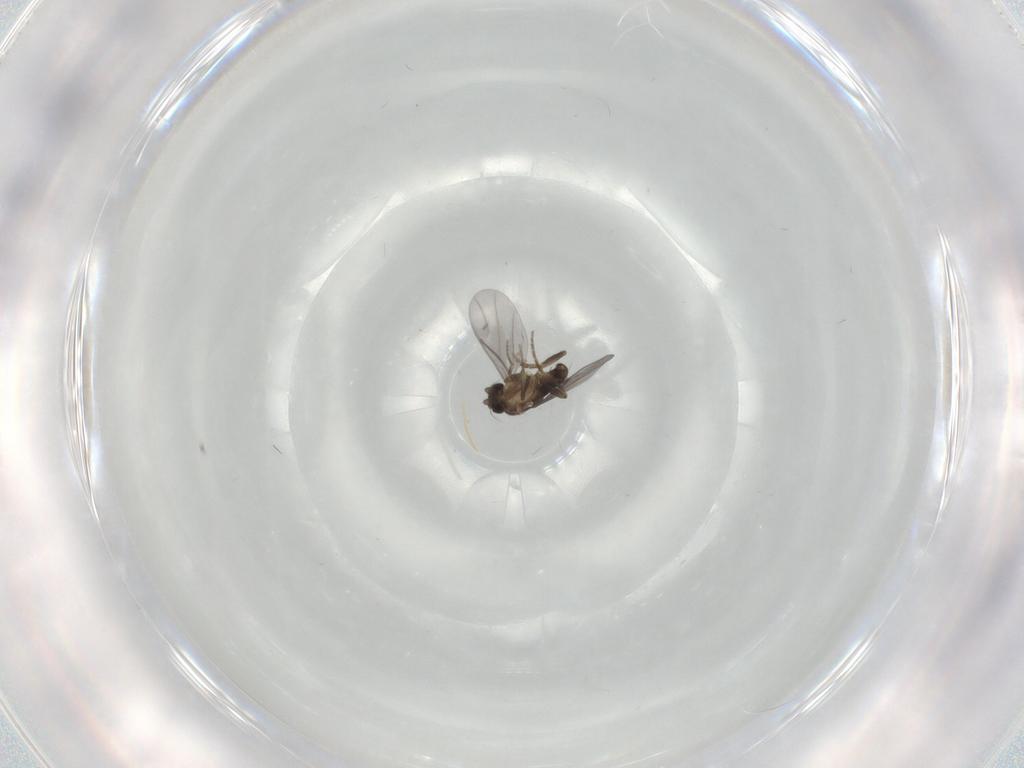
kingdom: Animalia
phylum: Arthropoda
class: Insecta
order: Diptera
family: Chironomidae
